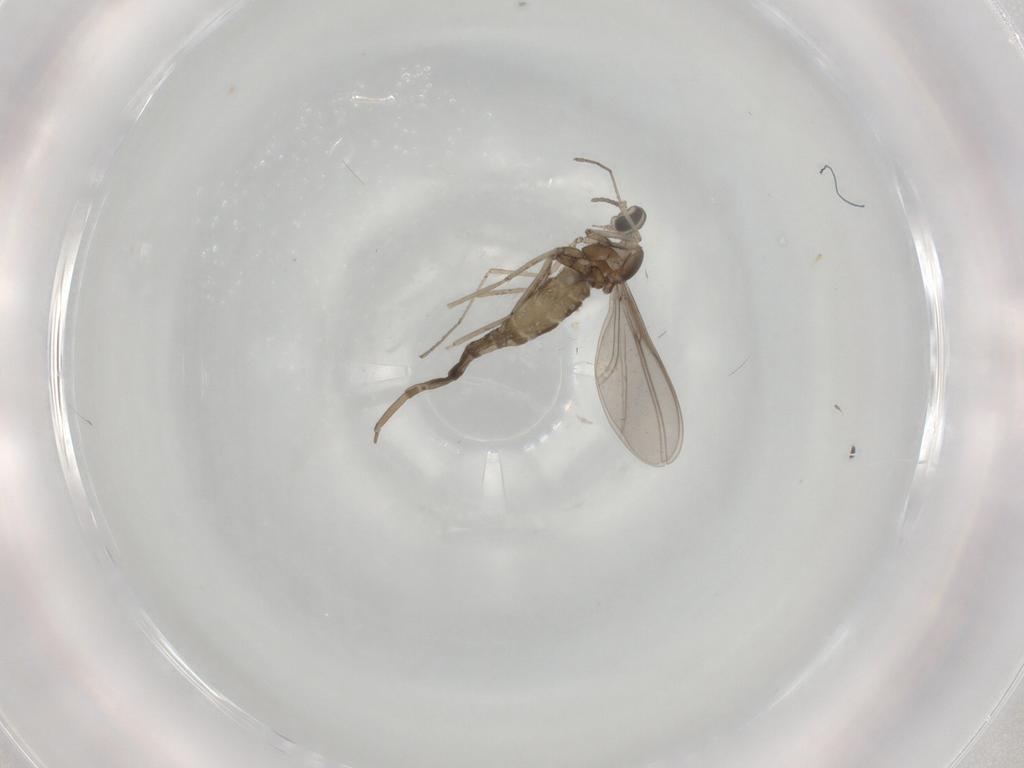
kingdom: Animalia
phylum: Arthropoda
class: Insecta
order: Diptera
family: Cecidomyiidae
